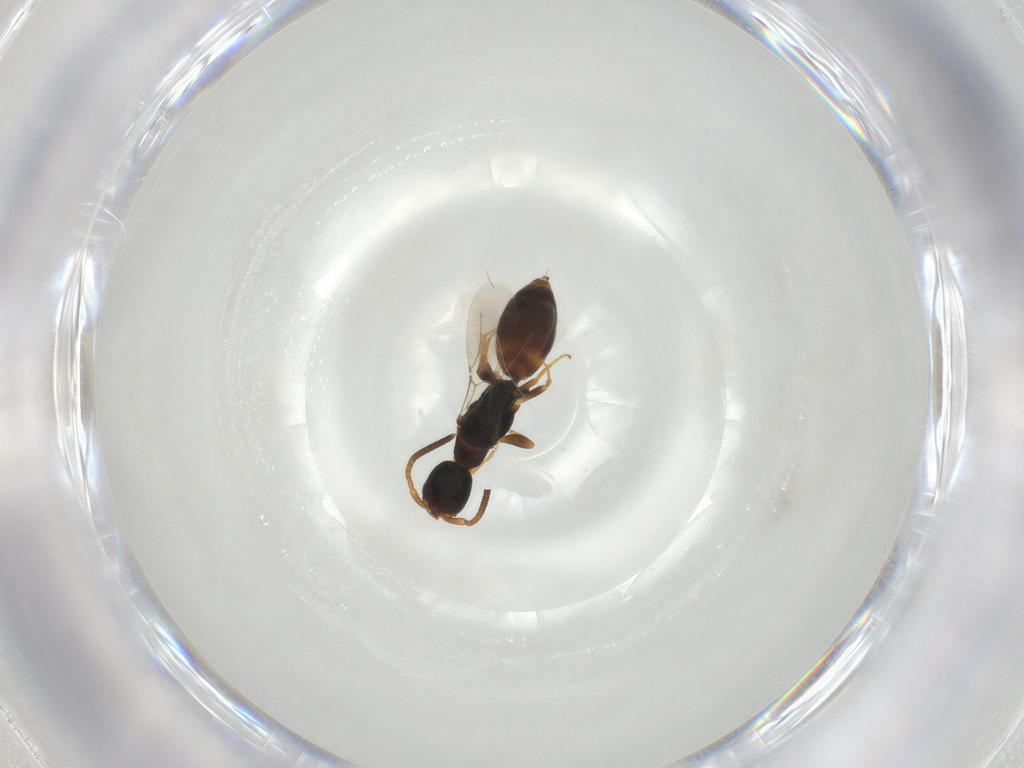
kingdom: Animalia
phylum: Arthropoda
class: Insecta
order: Hymenoptera
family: Bethylidae
